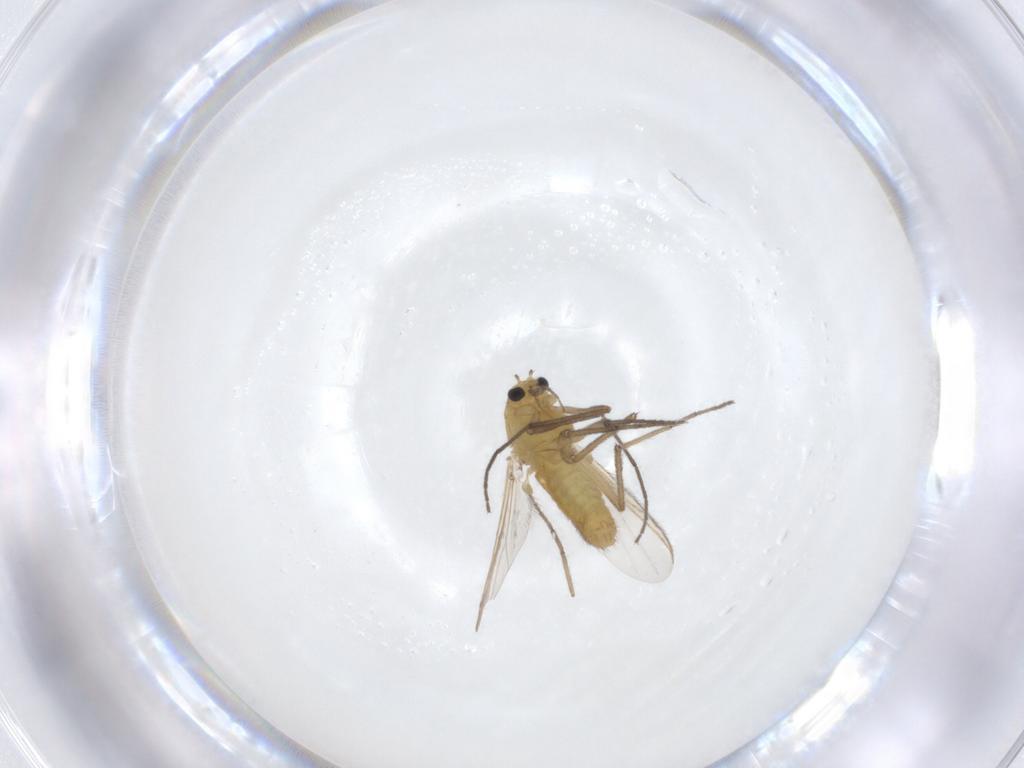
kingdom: Animalia
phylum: Arthropoda
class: Insecta
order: Diptera
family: Chironomidae
